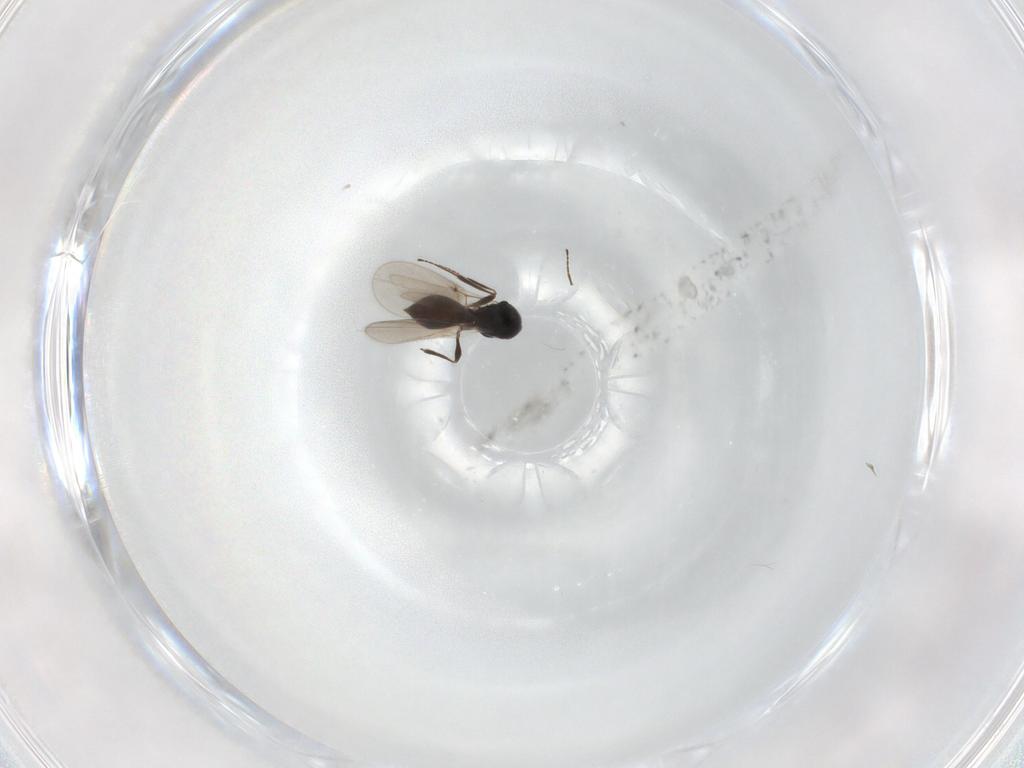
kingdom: Animalia
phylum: Arthropoda
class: Insecta
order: Hymenoptera
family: Platygastridae
